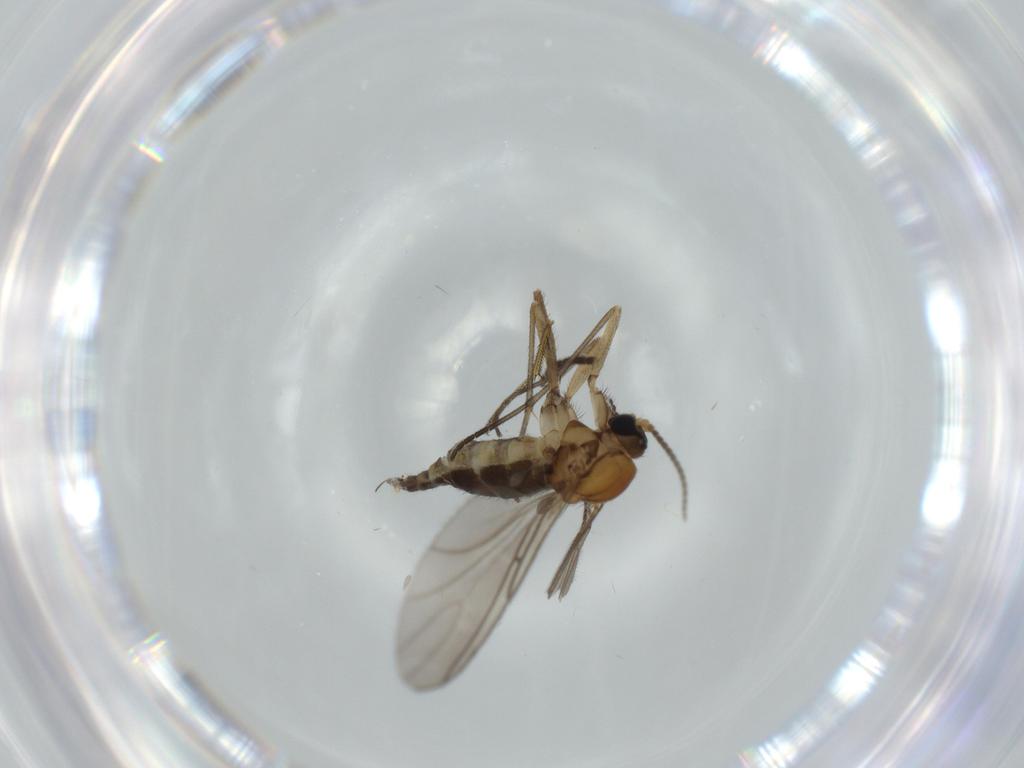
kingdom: Animalia
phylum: Arthropoda
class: Insecta
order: Diptera
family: Sciaridae
